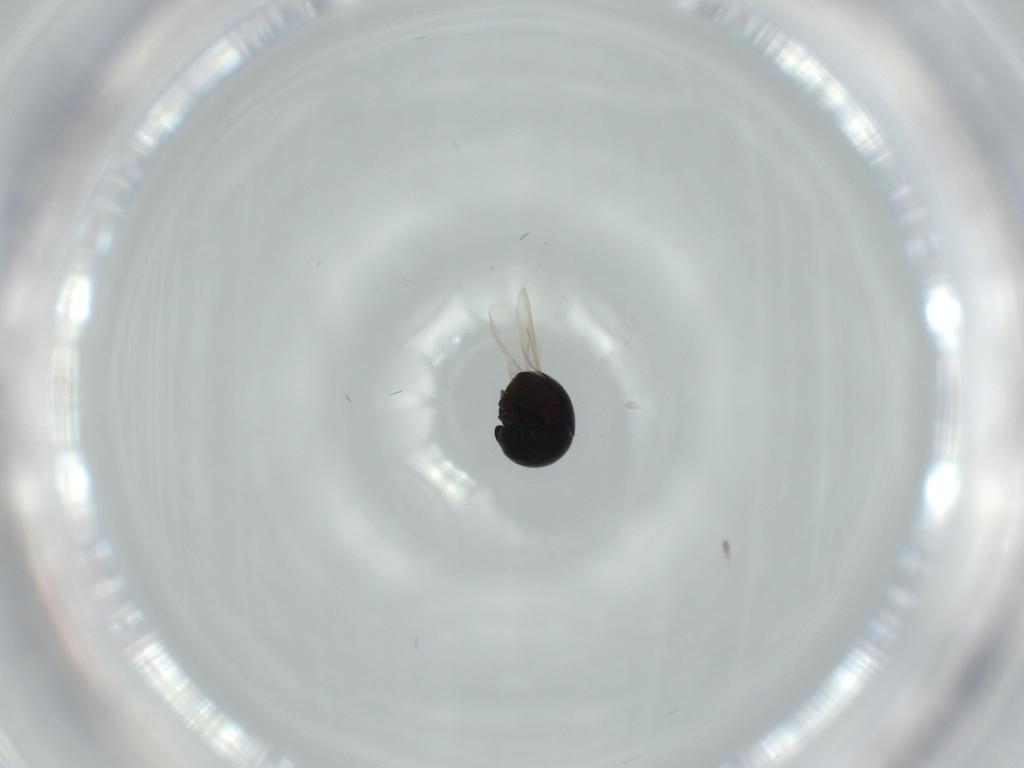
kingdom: Animalia
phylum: Arthropoda
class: Insecta
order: Coleoptera
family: Cybocephalidae
